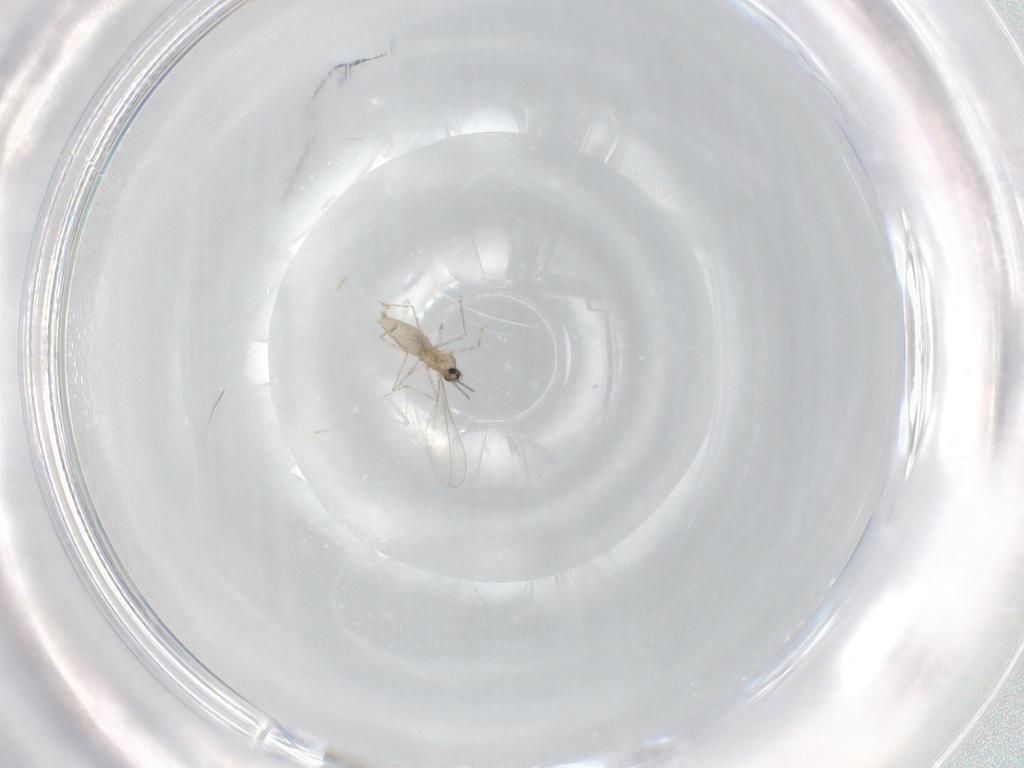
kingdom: Animalia
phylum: Arthropoda
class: Insecta
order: Diptera
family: Cecidomyiidae
